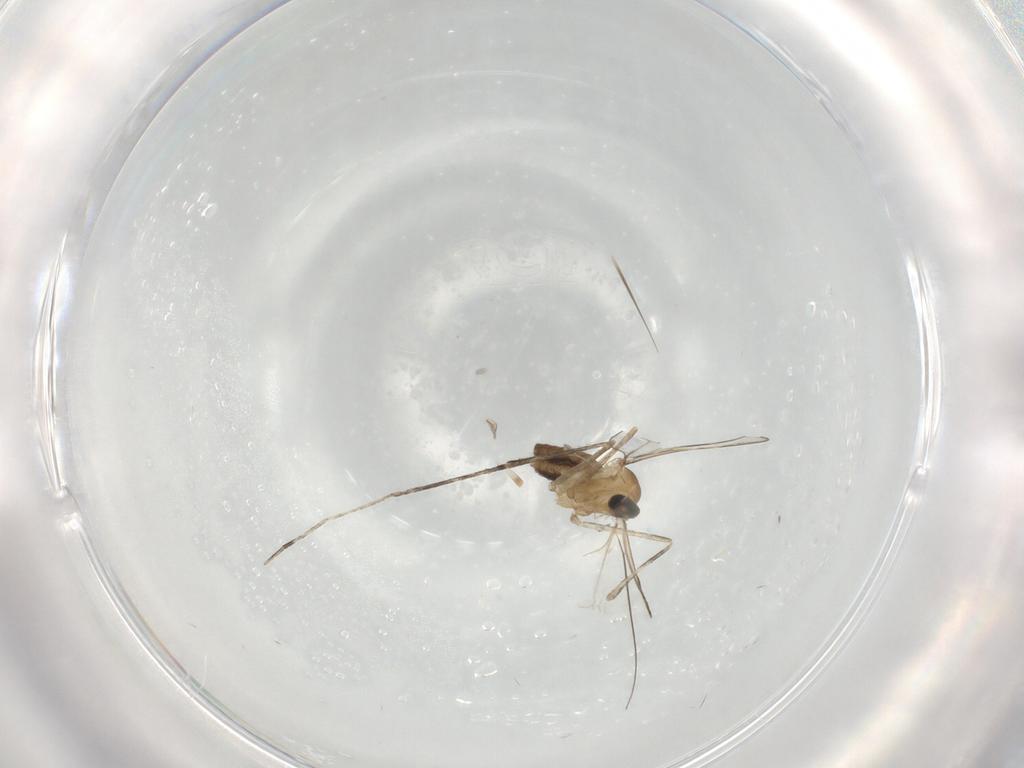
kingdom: Animalia
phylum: Arthropoda
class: Insecta
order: Diptera
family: Cecidomyiidae
